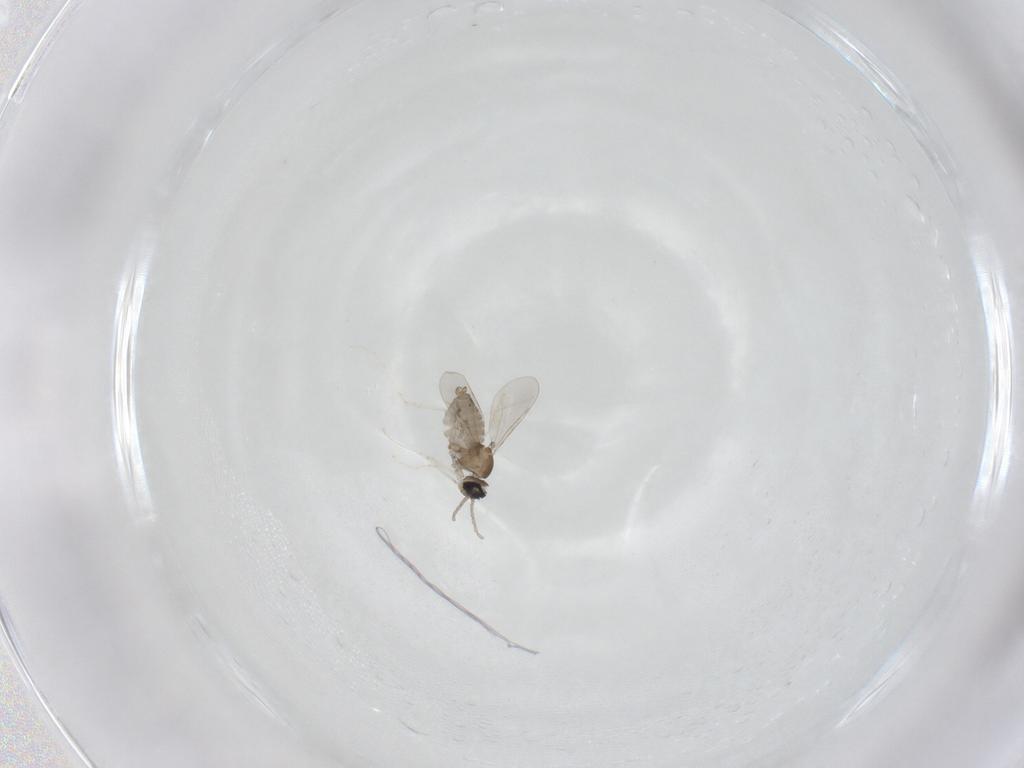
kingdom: Animalia
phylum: Arthropoda
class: Insecta
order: Diptera
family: Cecidomyiidae
